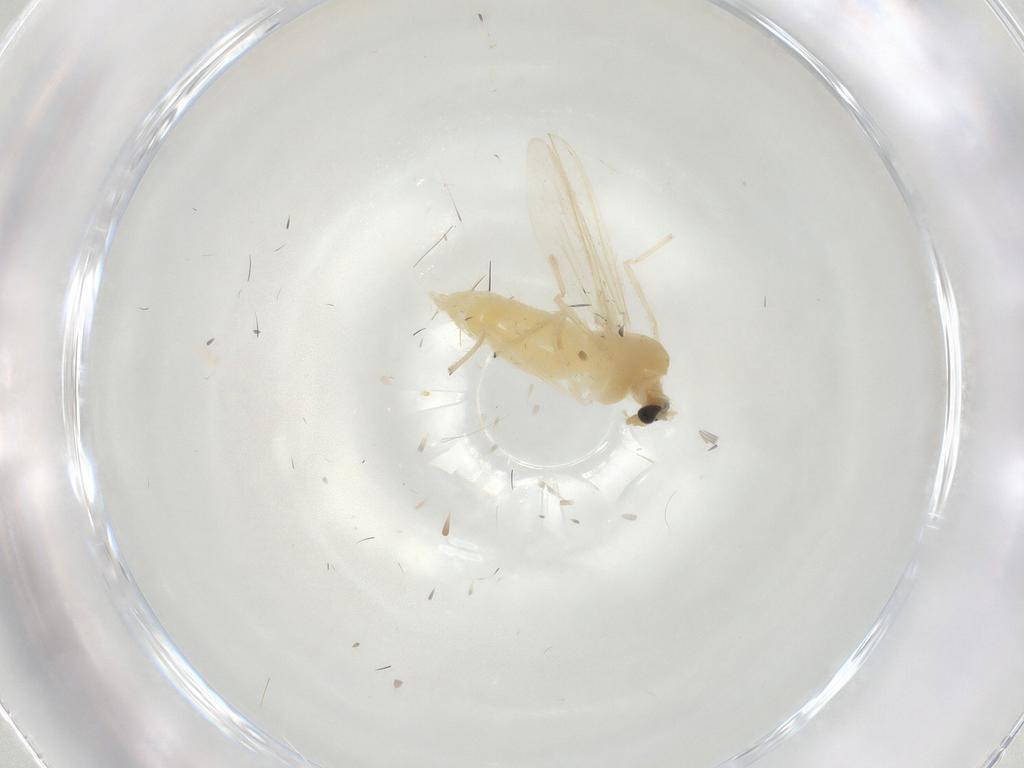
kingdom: Animalia
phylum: Arthropoda
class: Insecta
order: Diptera
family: Chironomidae
